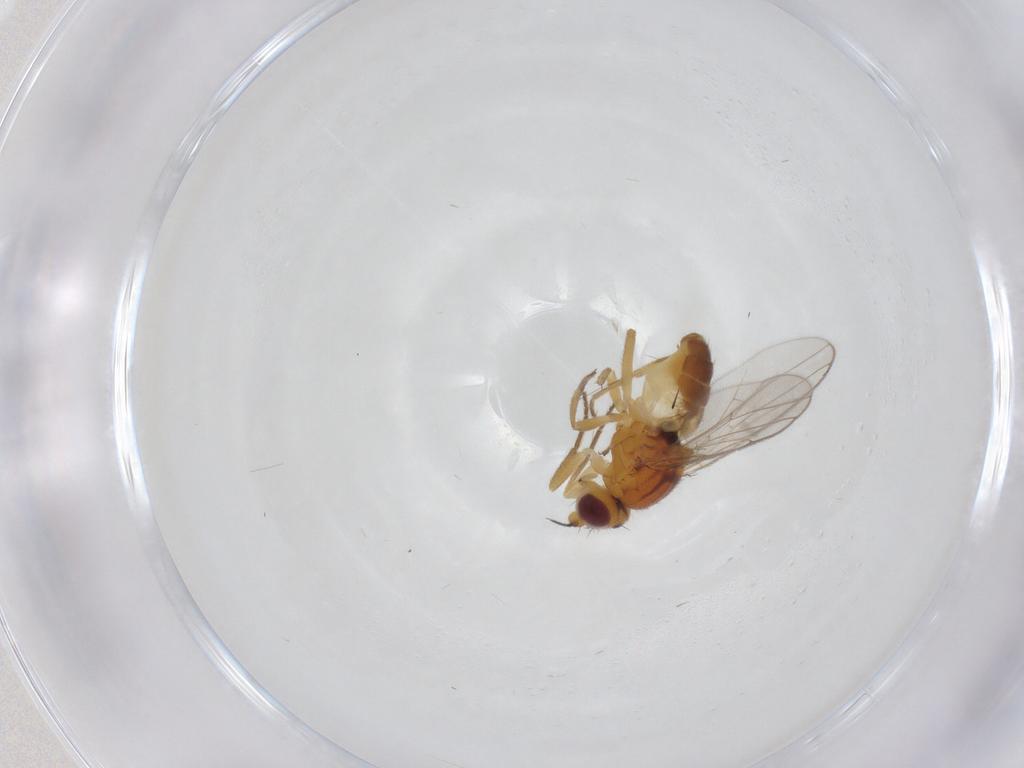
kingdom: Animalia
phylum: Arthropoda
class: Insecta
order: Diptera
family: Chloropidae
